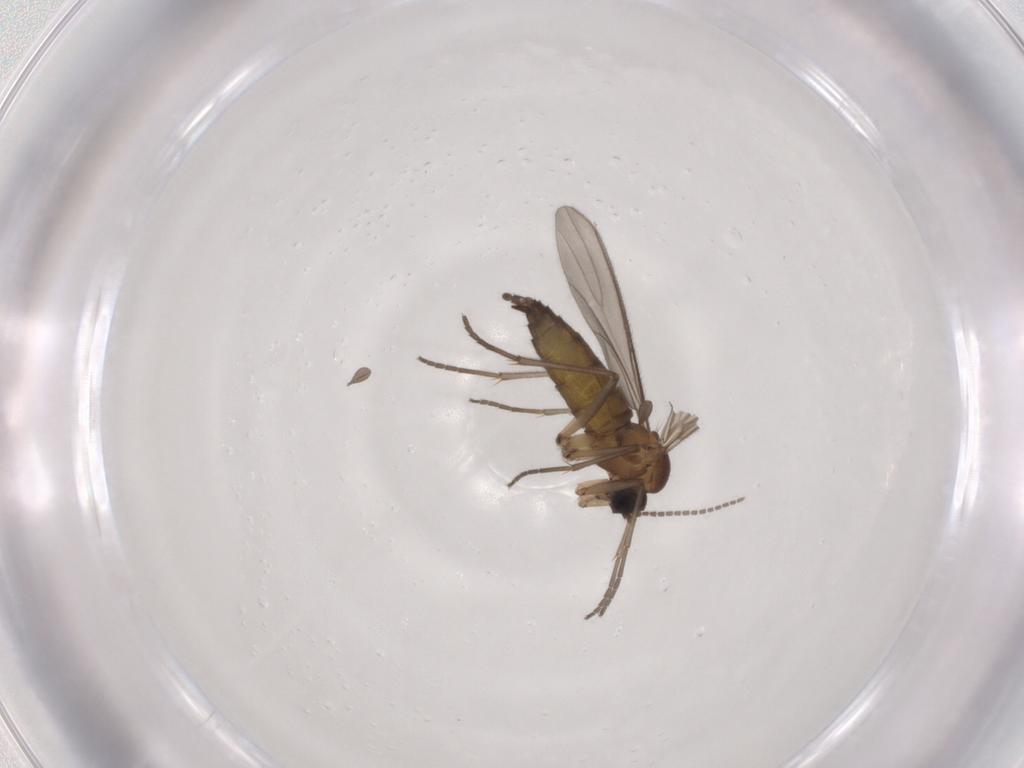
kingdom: Animalia
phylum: Arthropoda
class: Insecta
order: Diptera
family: Sciaridae
